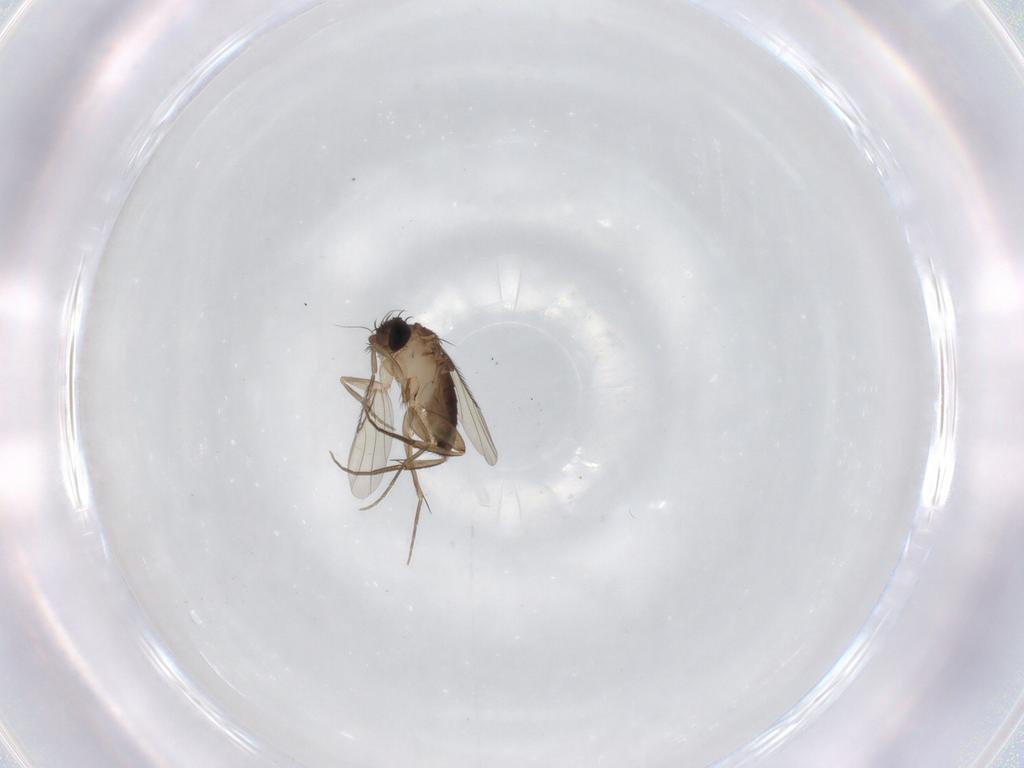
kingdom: Animalia
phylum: Arthropoda
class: Insecta
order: Diptera
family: Phoridae
